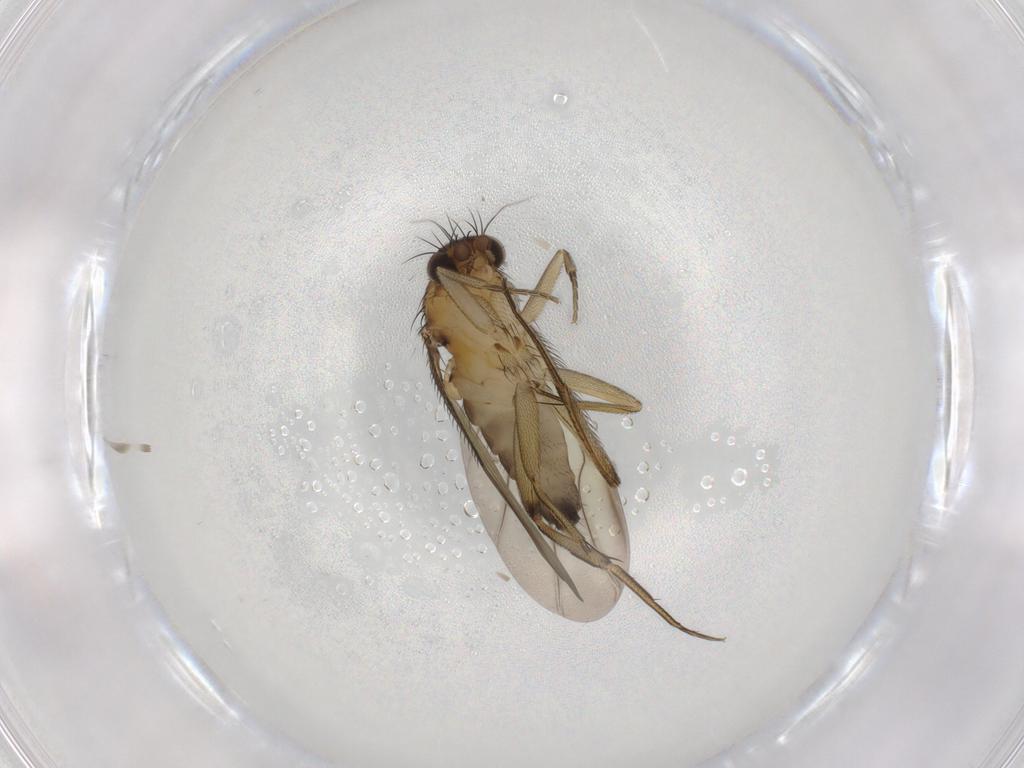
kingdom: Animalia
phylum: Arthropoda
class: Insecta
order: Diptera
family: Phoridae
